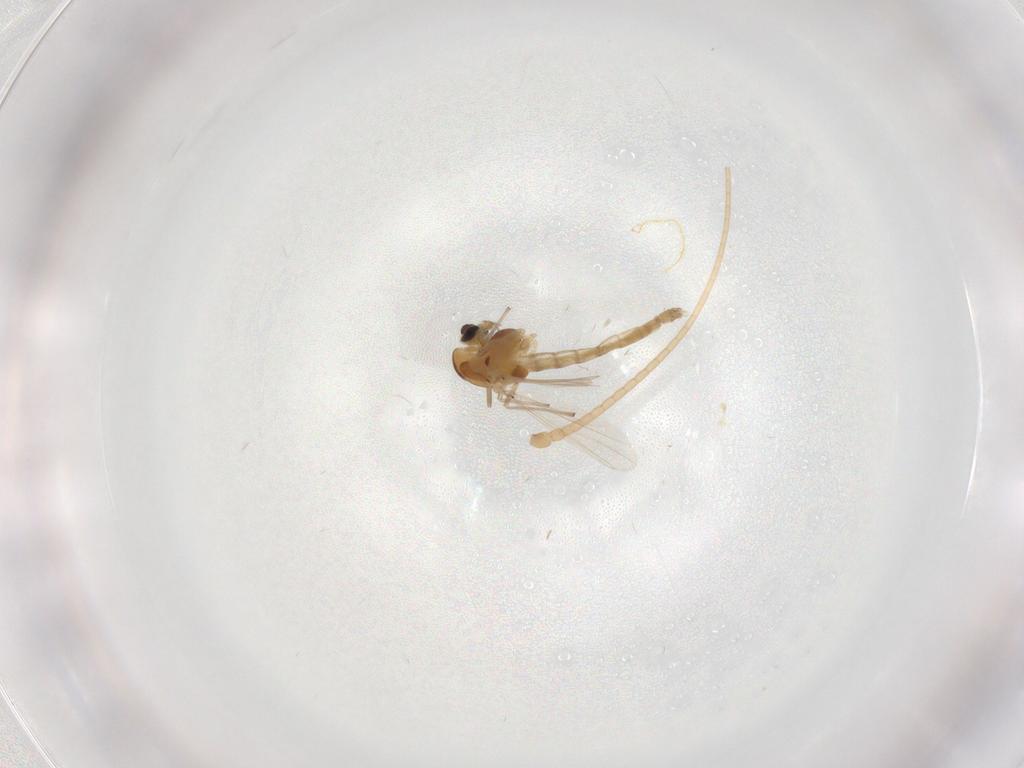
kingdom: Animalia
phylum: Arthropoda
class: Insecta
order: Diptera
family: Chironomidae
